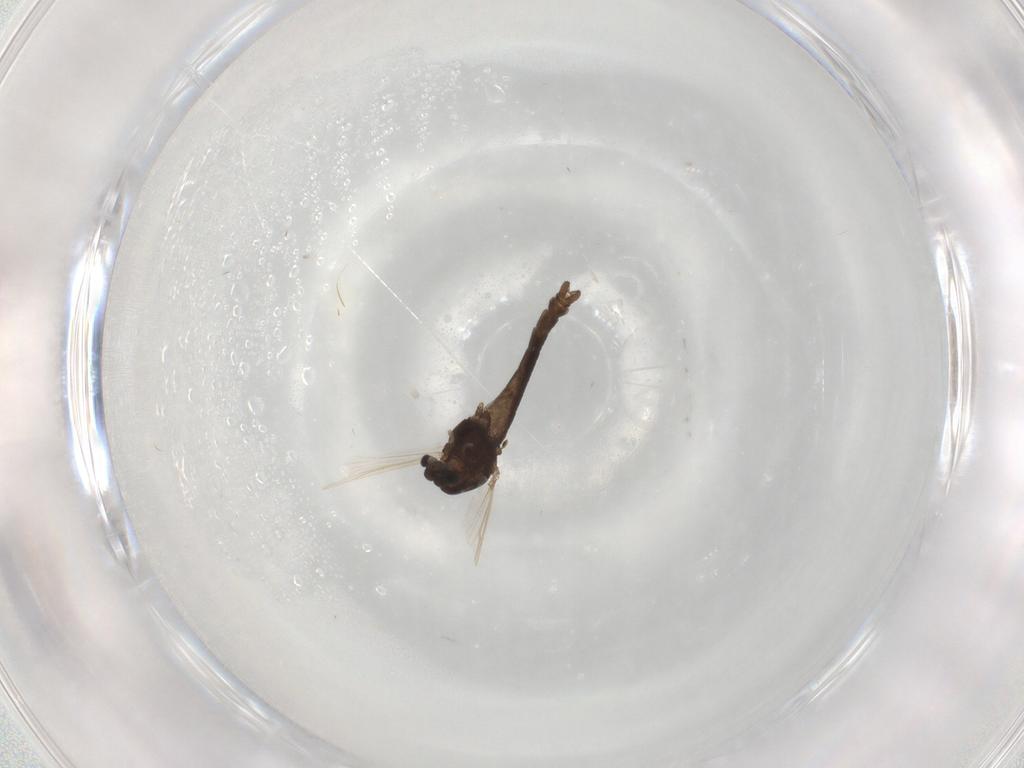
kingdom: Animalia
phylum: Arthropoda
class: Insecta
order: Diptera
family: Chironomidae
